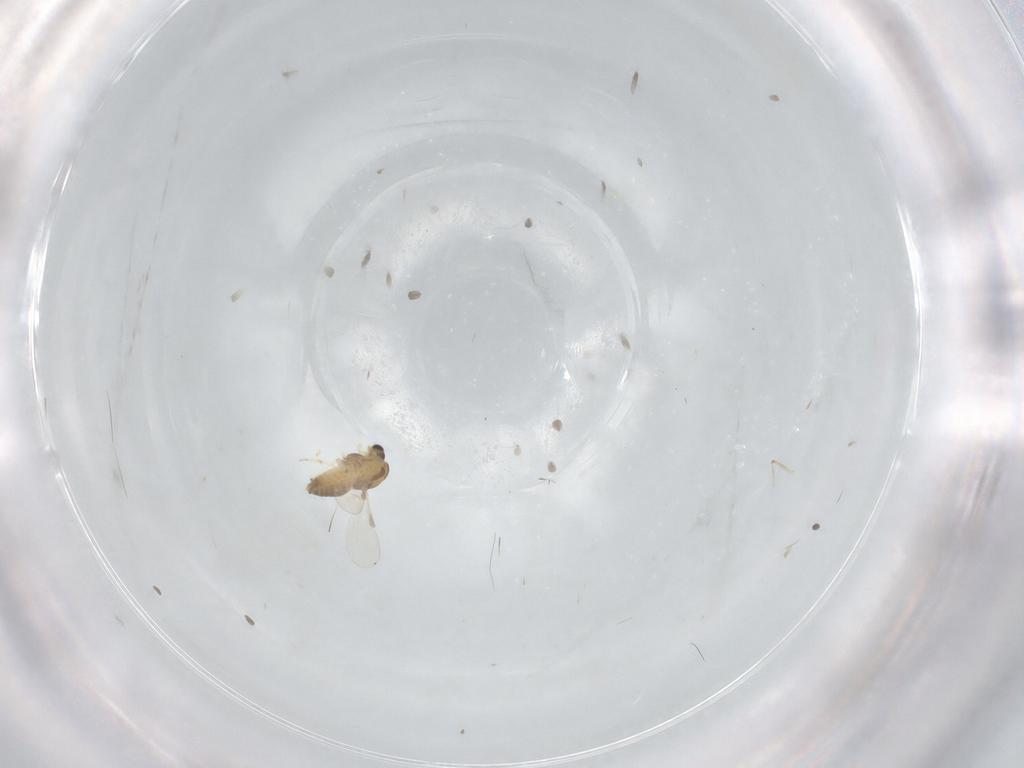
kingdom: Animalia
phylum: Arthropoda
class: Insecta
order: Diptera
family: Chironomidae
